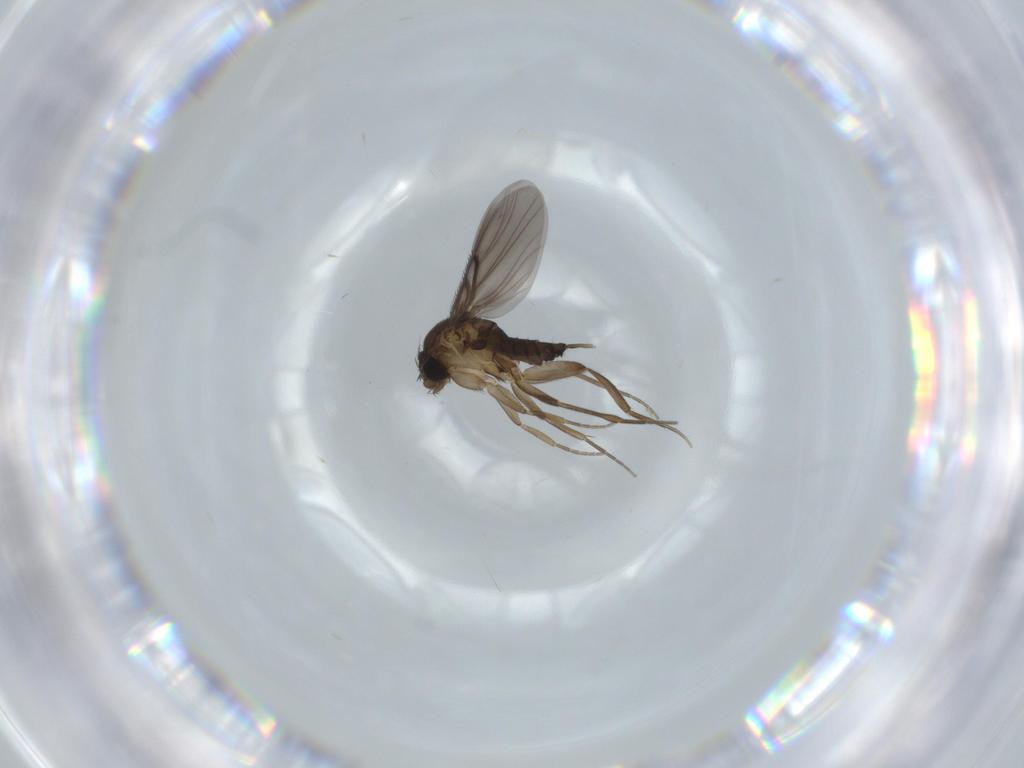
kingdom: Animalia
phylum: Arthropoda
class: Insecta
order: Diptera
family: Phoridae
